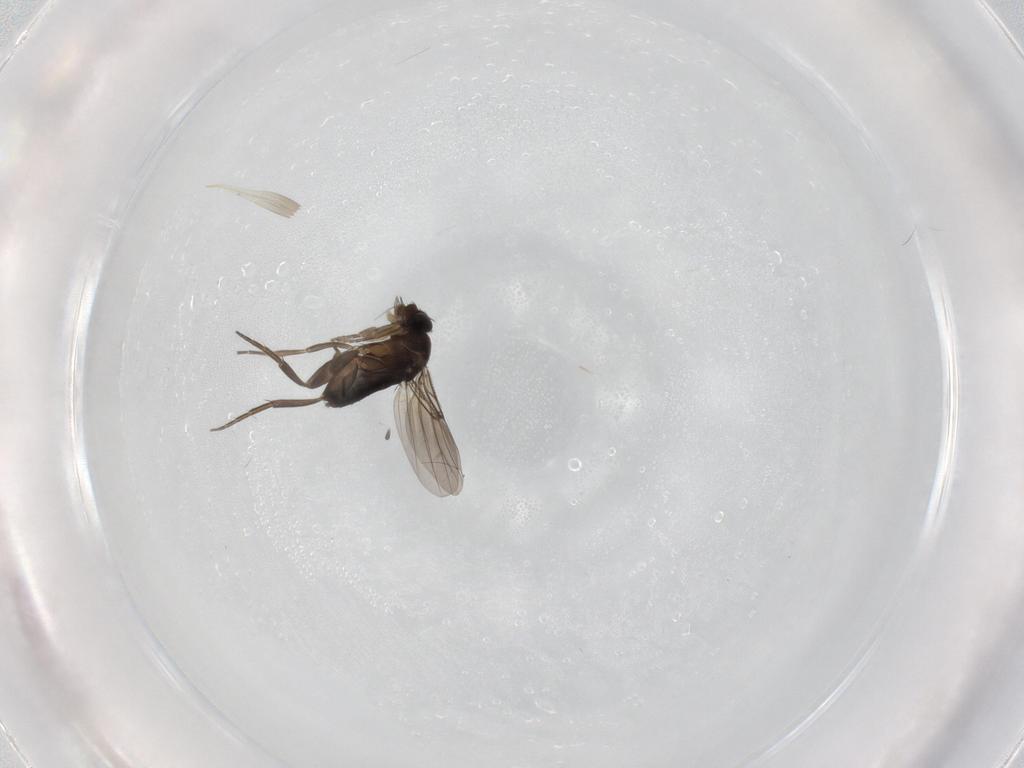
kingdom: Animalia
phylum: Arthropoda
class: Insecta
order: Diptera
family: Phoridae
